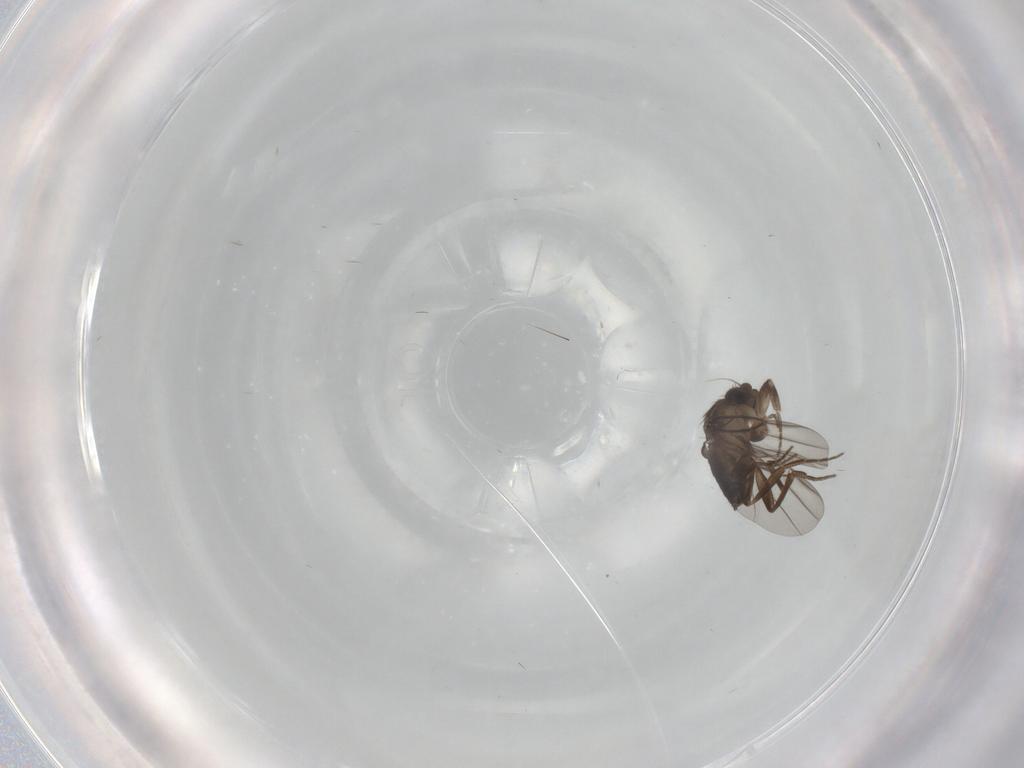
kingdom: Animalia
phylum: Arthropoda
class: Insecta
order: Diptera
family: Phoridae
